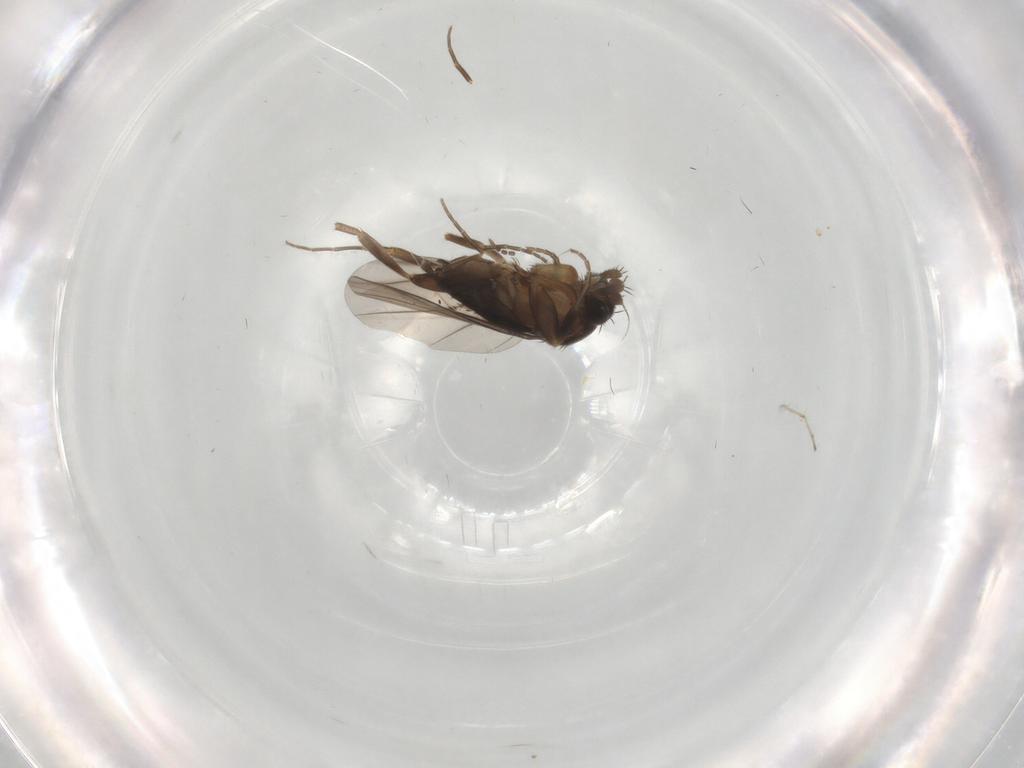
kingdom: Animalia
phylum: Arthropoda
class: Insecta
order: Diptera
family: Phoridae
